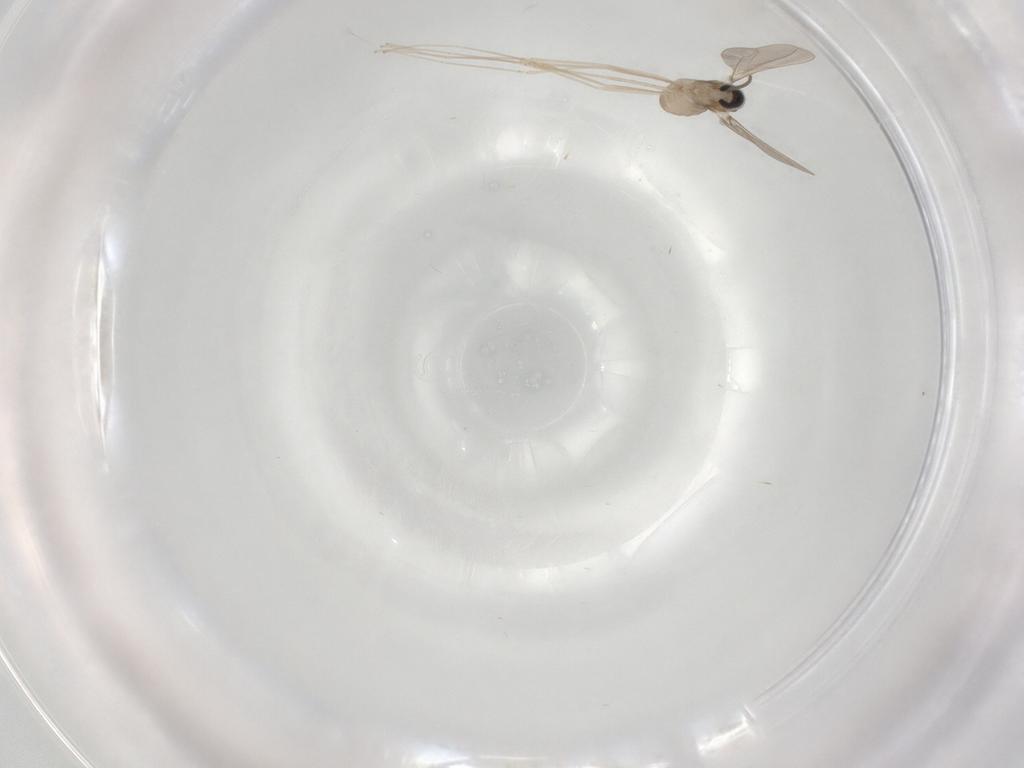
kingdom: Animalia
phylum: Arthropoda
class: Insecta
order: Diptera
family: Cecidomyiidae
